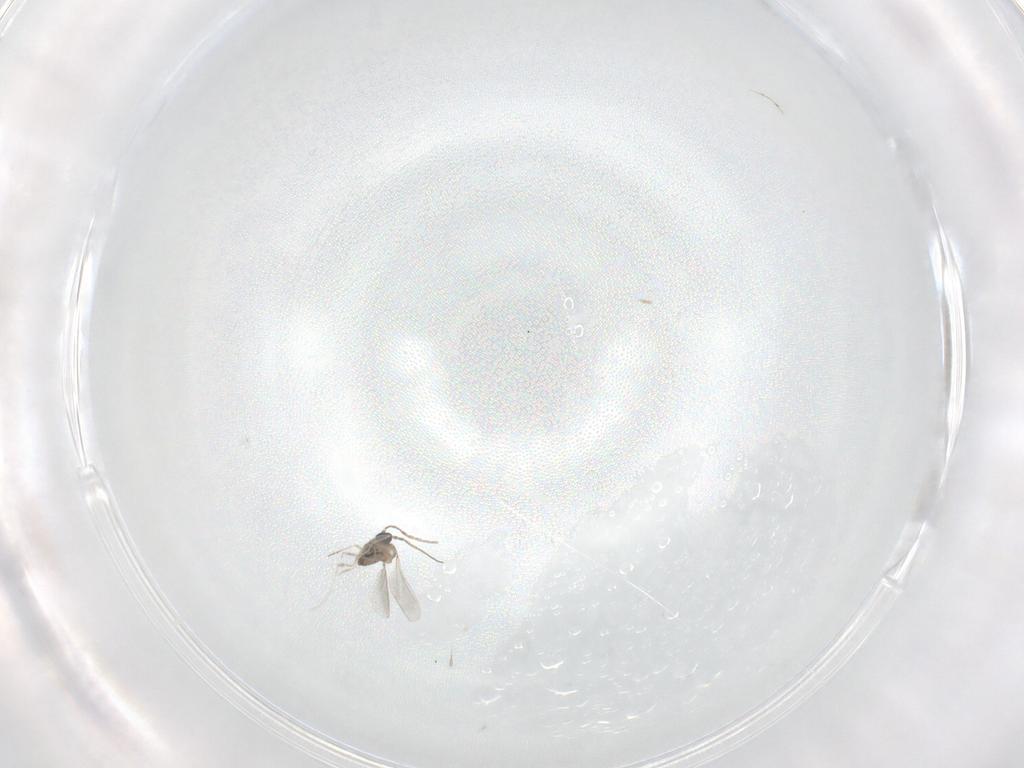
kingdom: Animalia
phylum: Arthropoda
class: Insecta
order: Diptera
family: Cecidomyiidae
